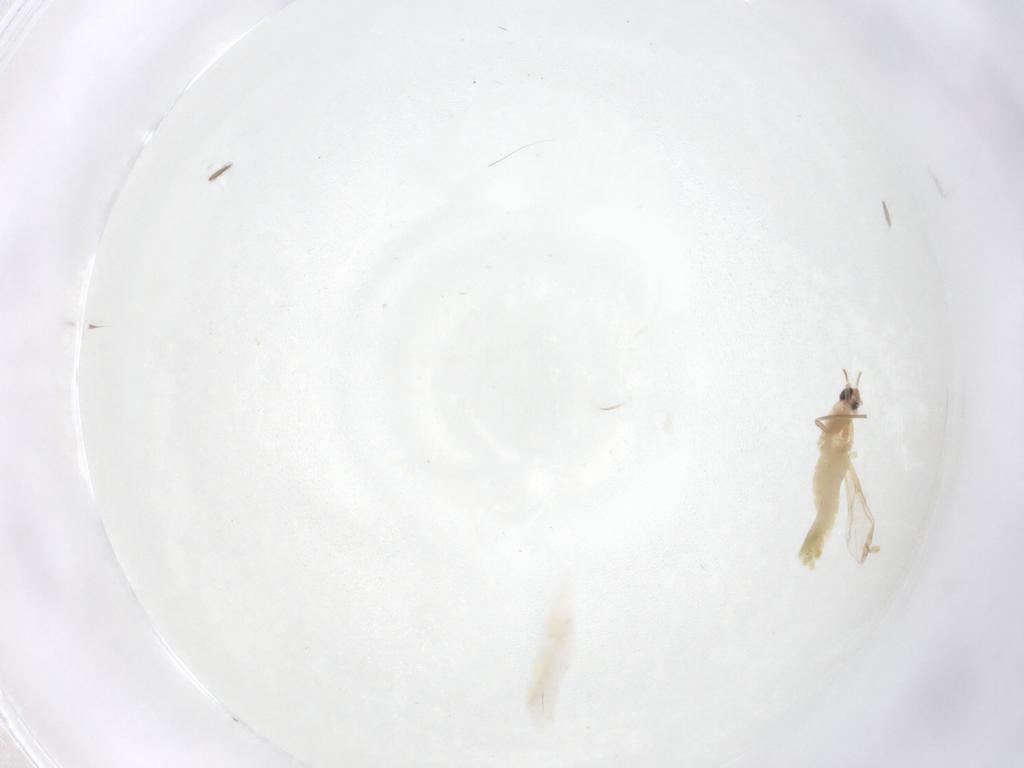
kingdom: Animalia
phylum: Arthropoda
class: Insecta
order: Diptera
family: Chironomidae
